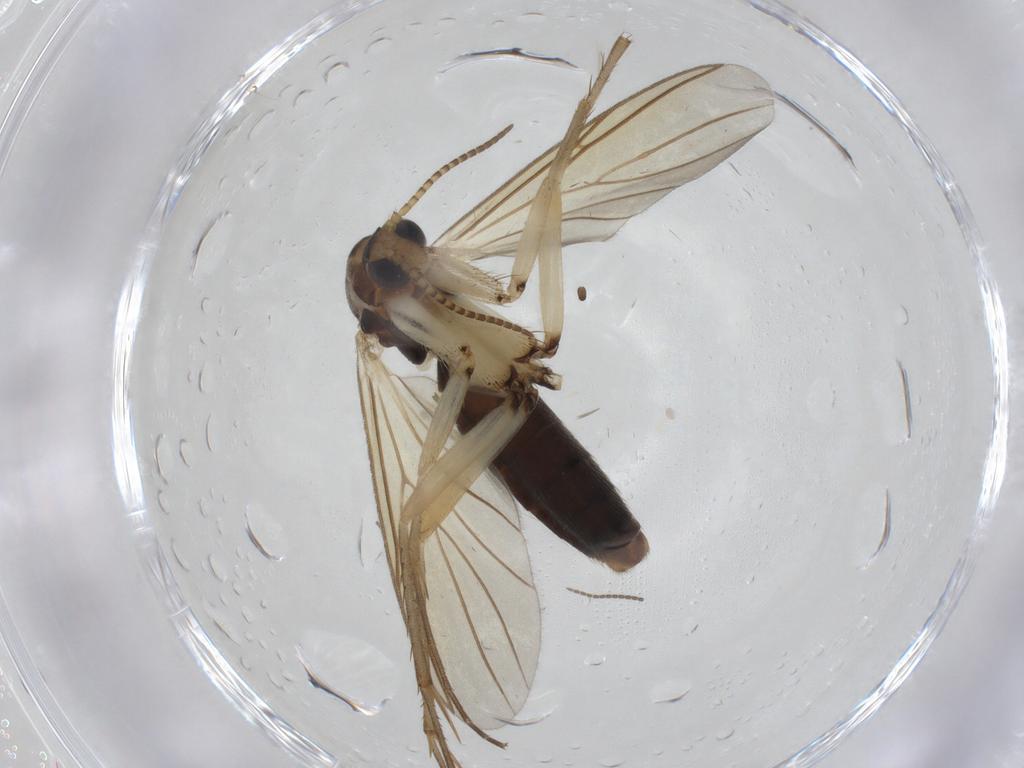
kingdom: Animalia
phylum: Arthropoda
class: Insecta
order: Diptera
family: Mycetophilidae
